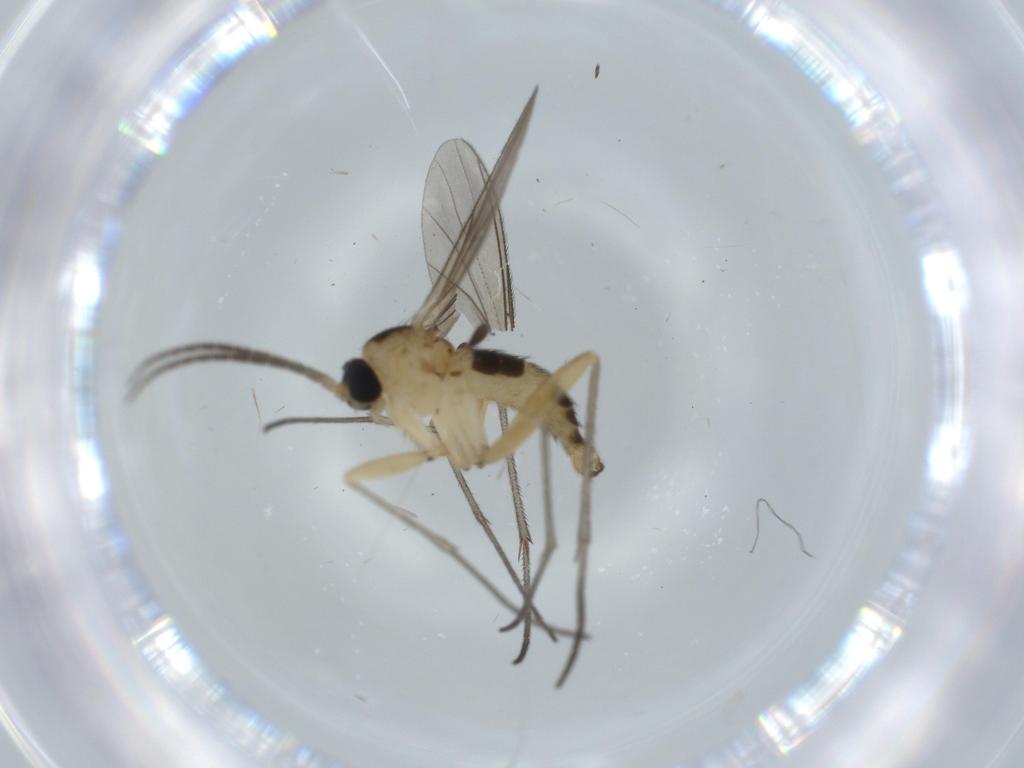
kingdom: Animalia
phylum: Arthropoda
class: Insecta
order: Diptera
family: Sciaridae
